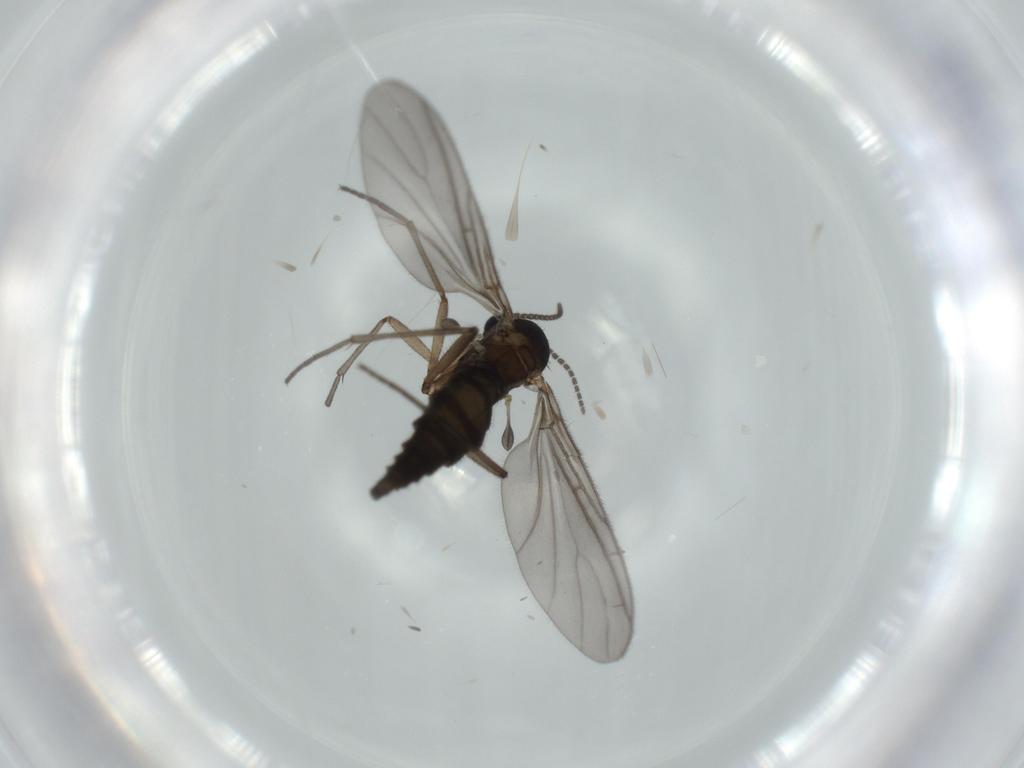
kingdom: Animalia
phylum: Arthropoda
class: Insecta
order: Diptera
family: Sciaridae
